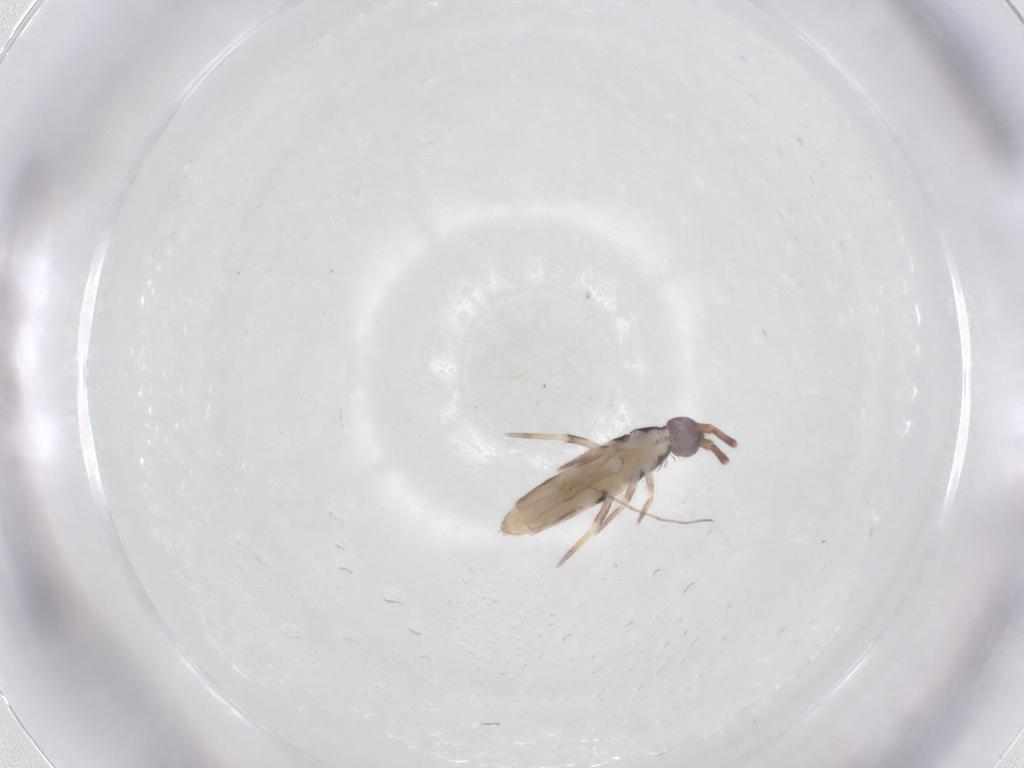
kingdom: Animalia
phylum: Arthropoda
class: Collembola
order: Entomobryomorpha
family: Entomobryidae
